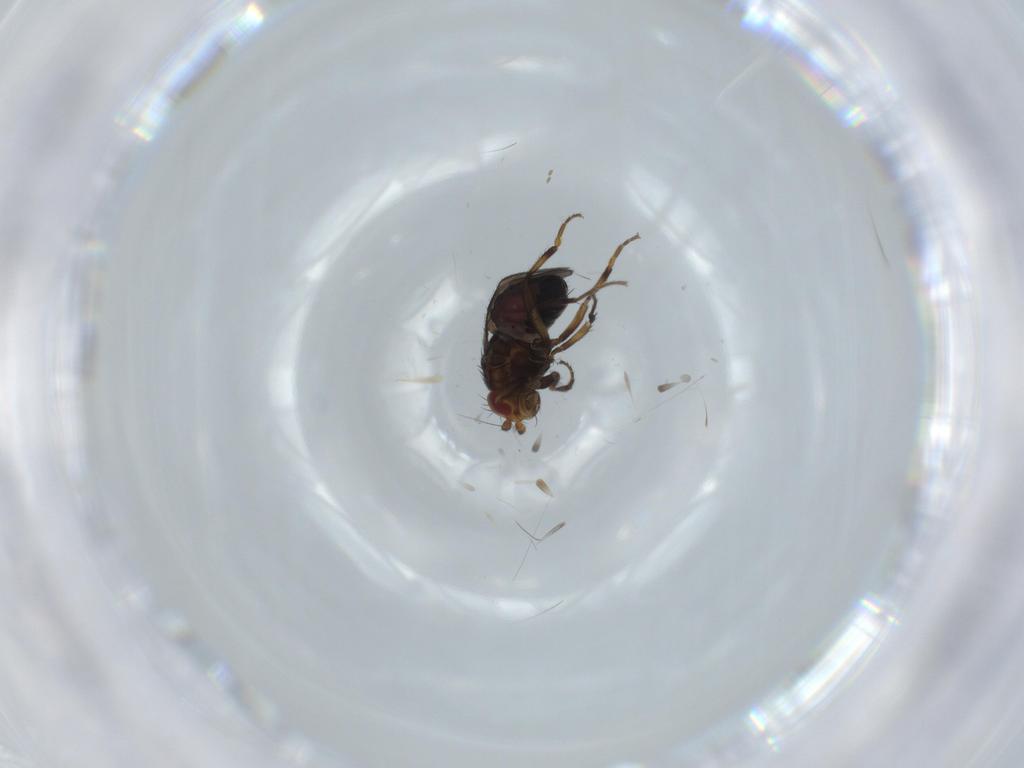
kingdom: Animalia
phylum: Arthropoda
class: Insecta
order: Diptera
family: Sphaeroceridae
